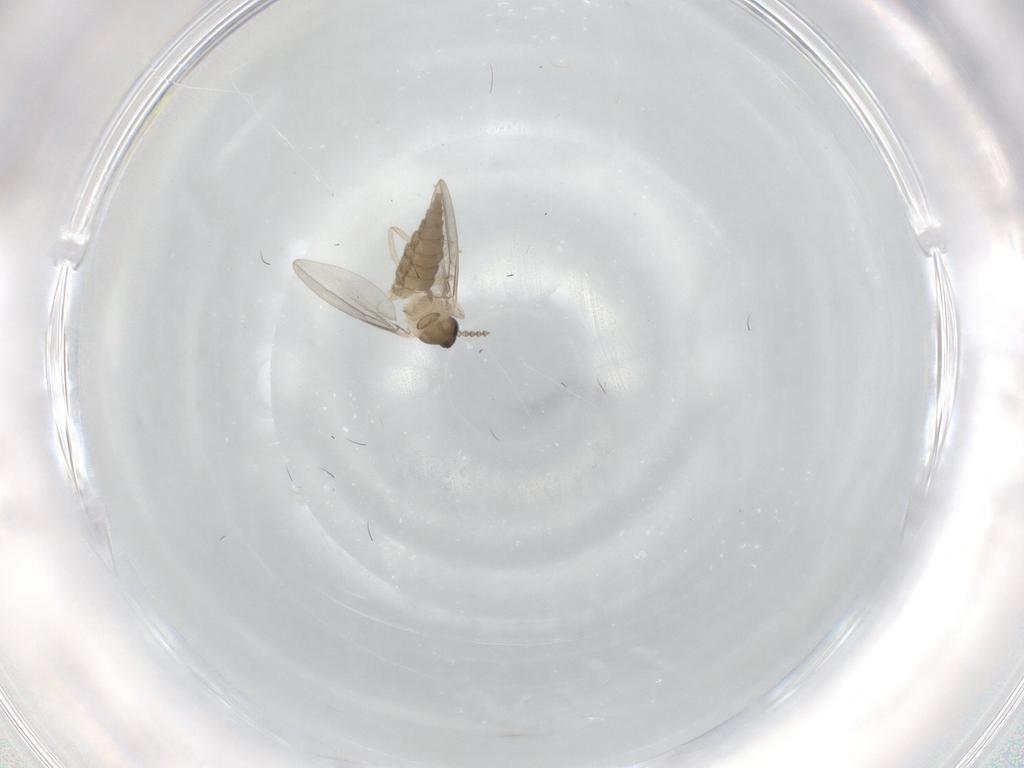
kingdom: Animalia
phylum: Arthropoda
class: Insecta
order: Diptera
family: Cecidomyiidae
